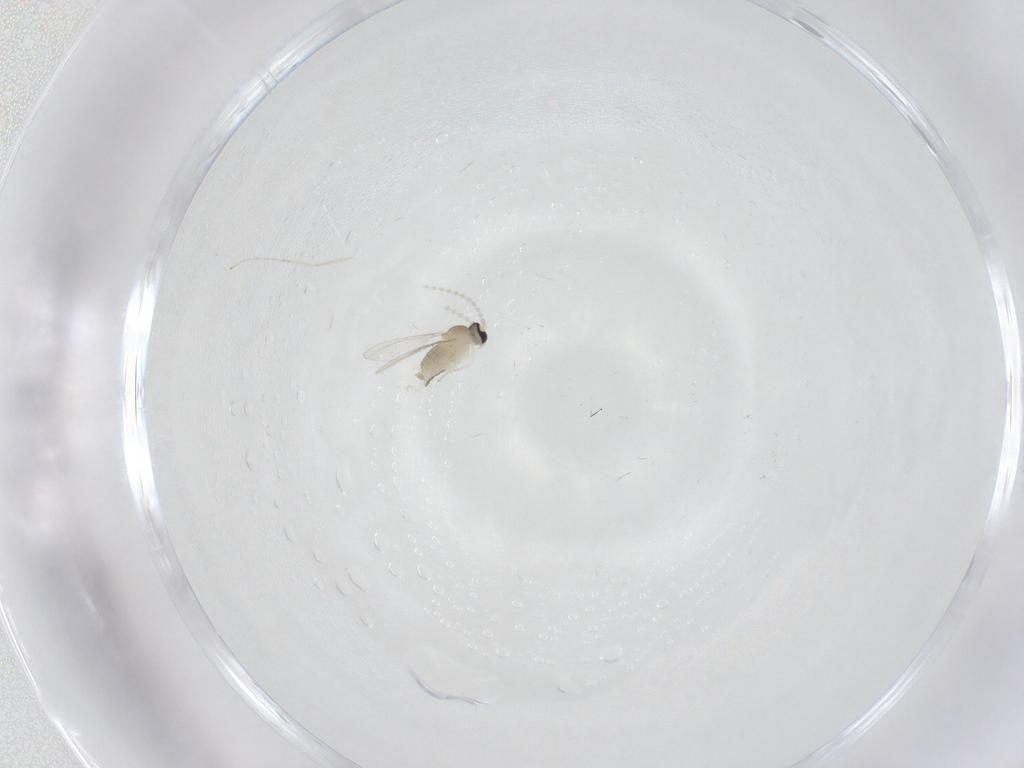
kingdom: Animalia
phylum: Arthropoda
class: Insecta
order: Diptera
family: Cecidomyiidae
